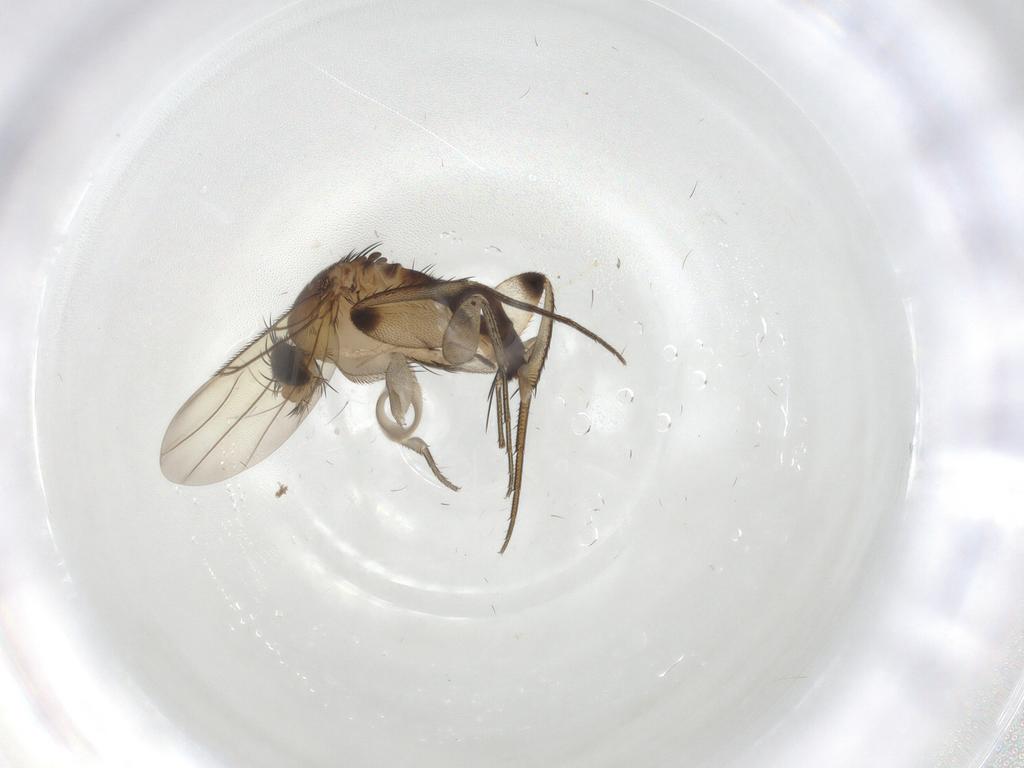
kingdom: Animalia
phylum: Arthropoda
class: Insecta
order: Diptera
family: Phoridae
